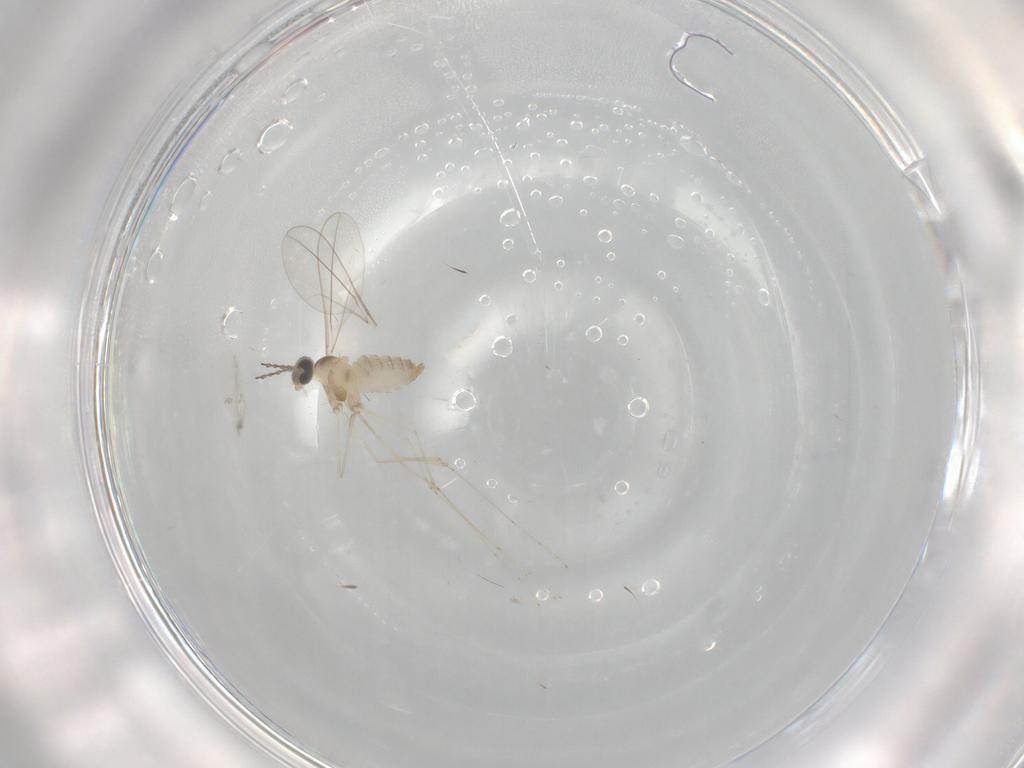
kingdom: Animalia
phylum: Arthropoda
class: Insecta
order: Diptera
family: Cecidomyiidae
